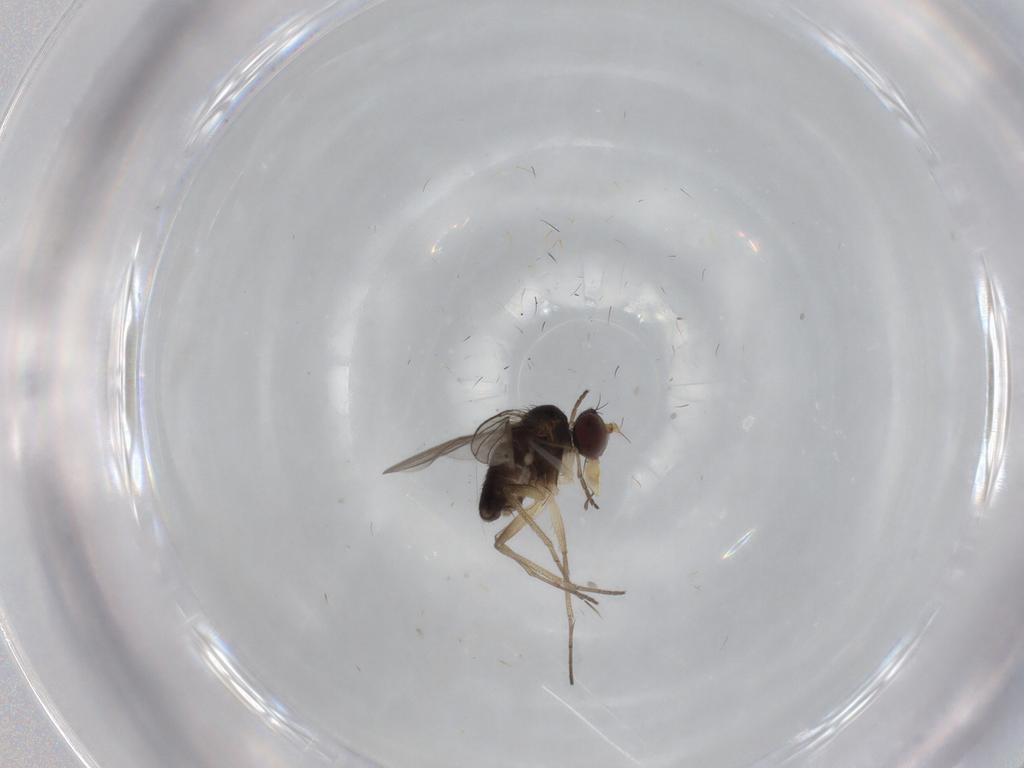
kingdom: Animalia
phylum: Arthropoda
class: Insecta
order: Diptera
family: Dolichopodidae
